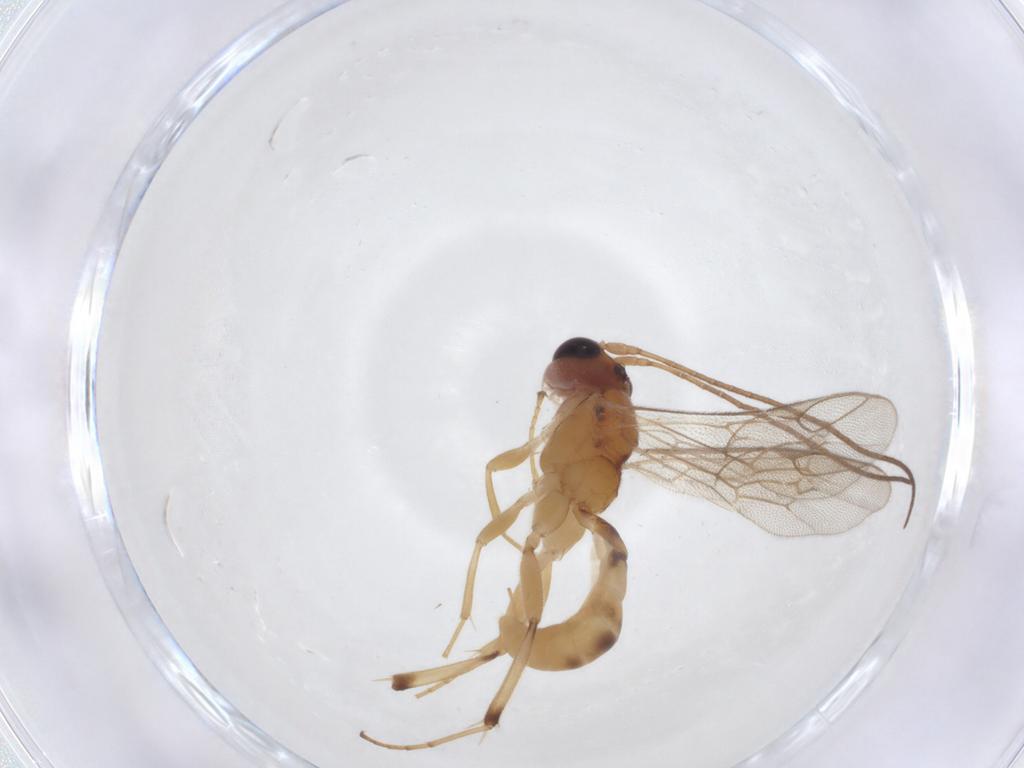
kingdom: Animalia
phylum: Arthropoda
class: Insecta
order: Hymenoptera
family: Ichneumonidae
